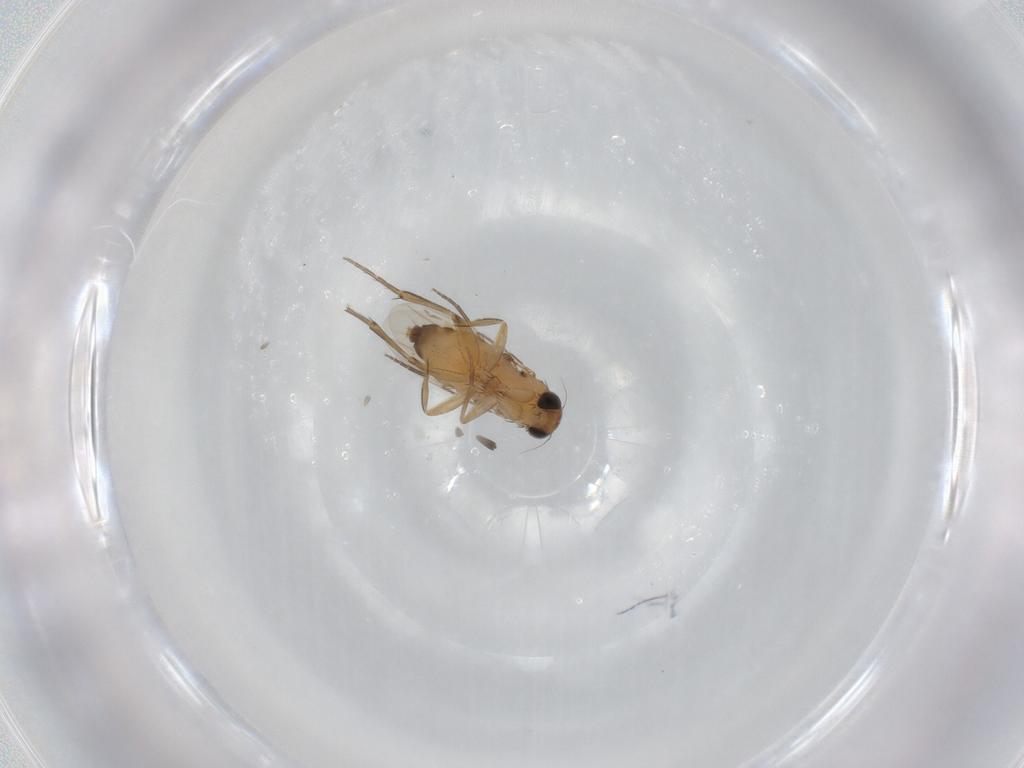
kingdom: Animalia
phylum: Arthropoda
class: Insecta
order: Diptera
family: Phoridae
